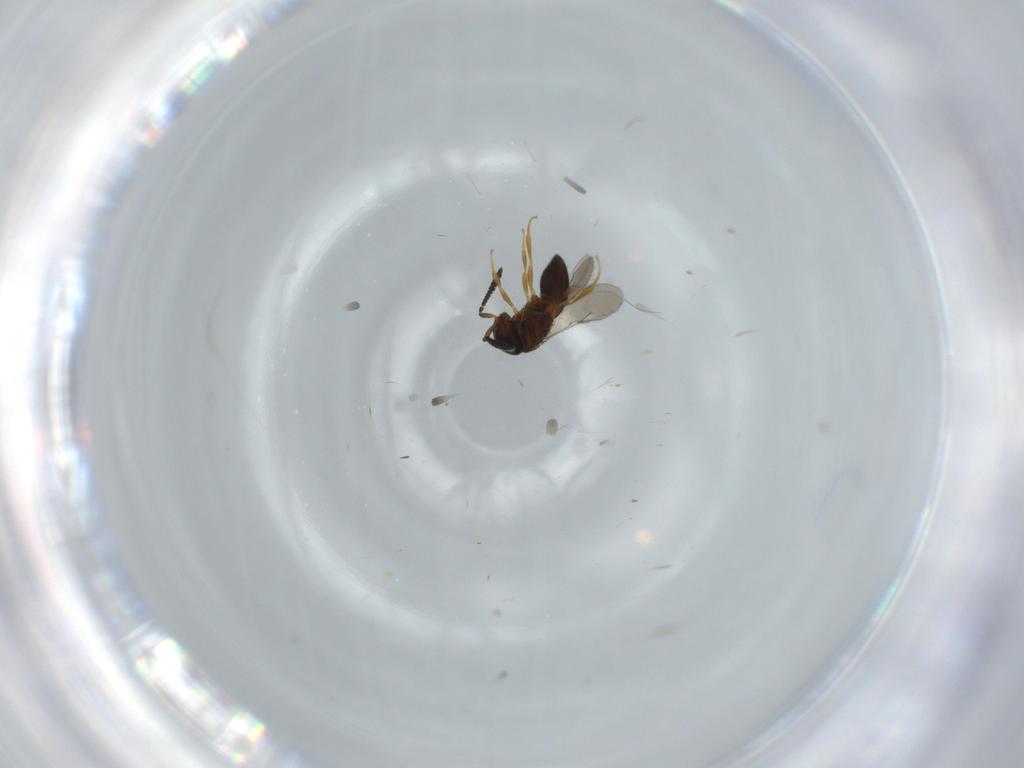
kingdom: Animalia
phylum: Arthropoda
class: Insecta
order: Hymenoptera
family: Scelionidae
